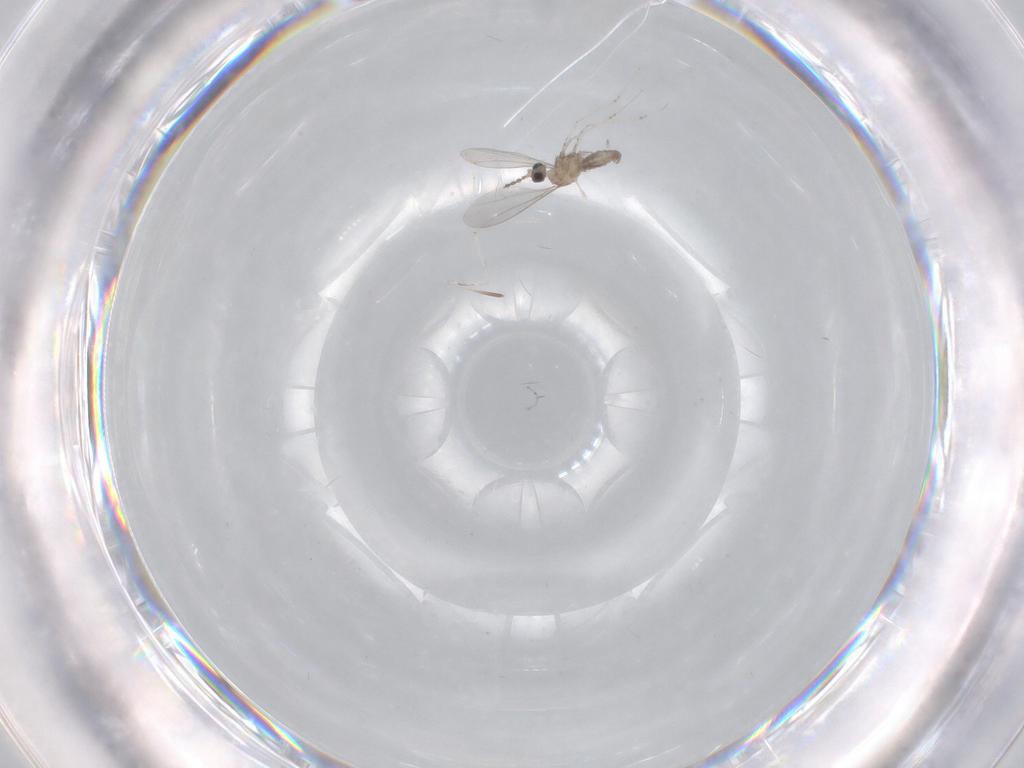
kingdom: Animalia
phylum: Arthropoda
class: Insecta
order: Diptera
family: Cecidomyiidae
